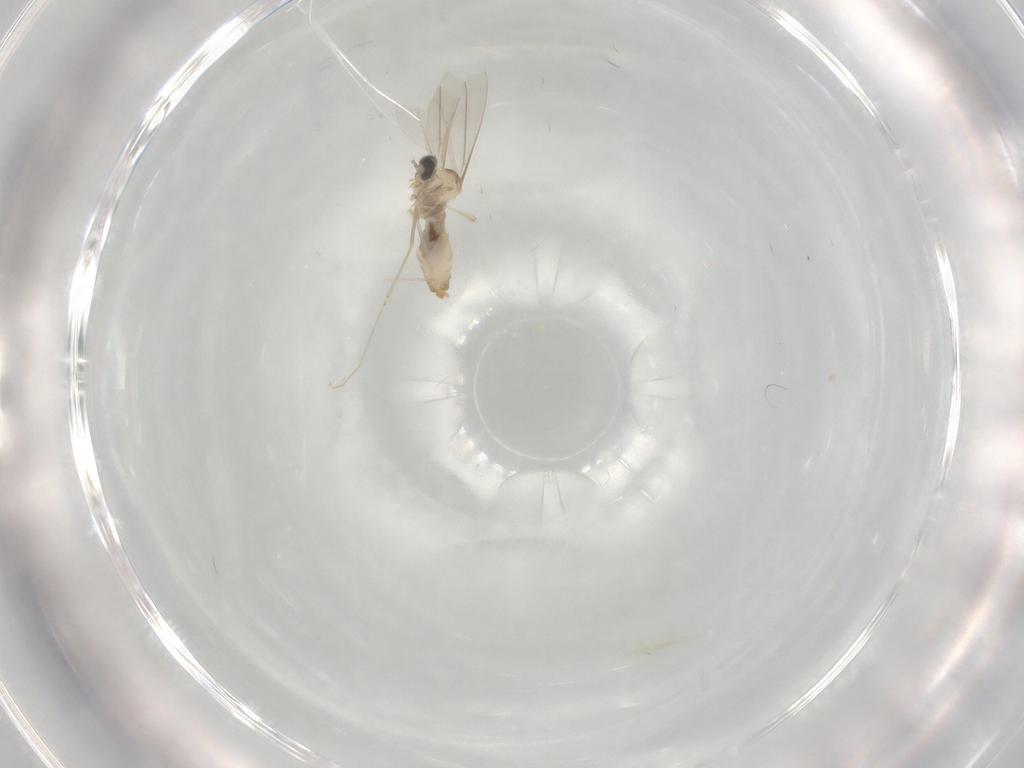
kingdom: Animalia
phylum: Arthropoda
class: Insecta
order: Diptera
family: Cecidomyiidae
